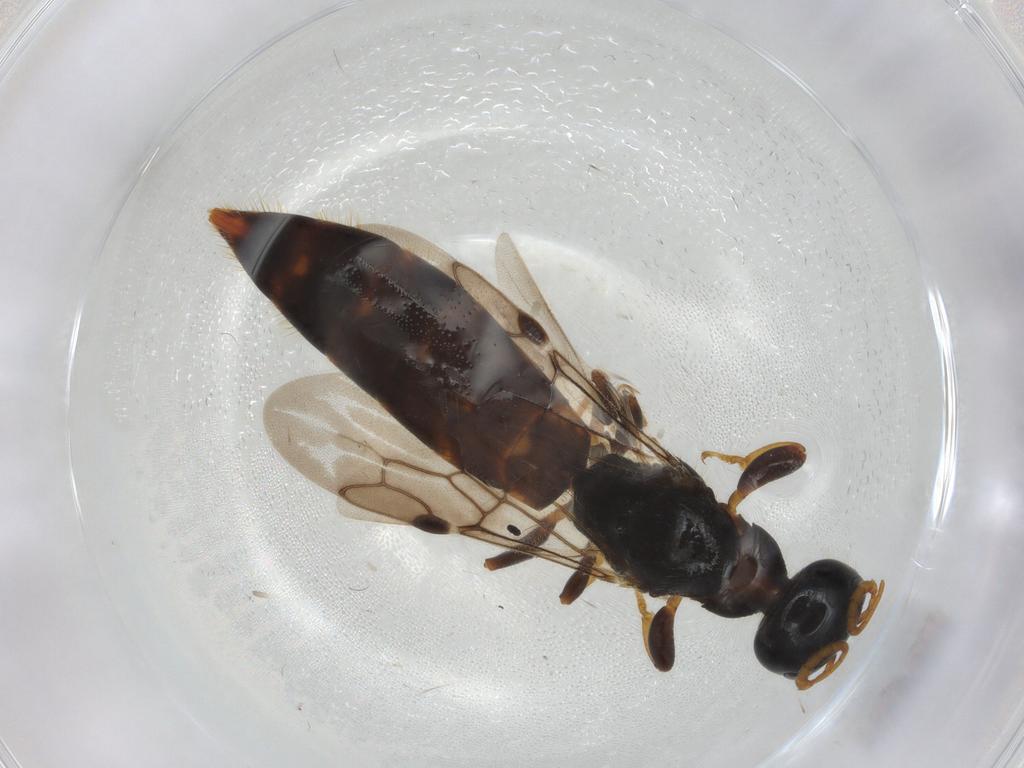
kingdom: Animalia
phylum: Arthropoda
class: Insecta
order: Hymenoptera
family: Scolebythidae
